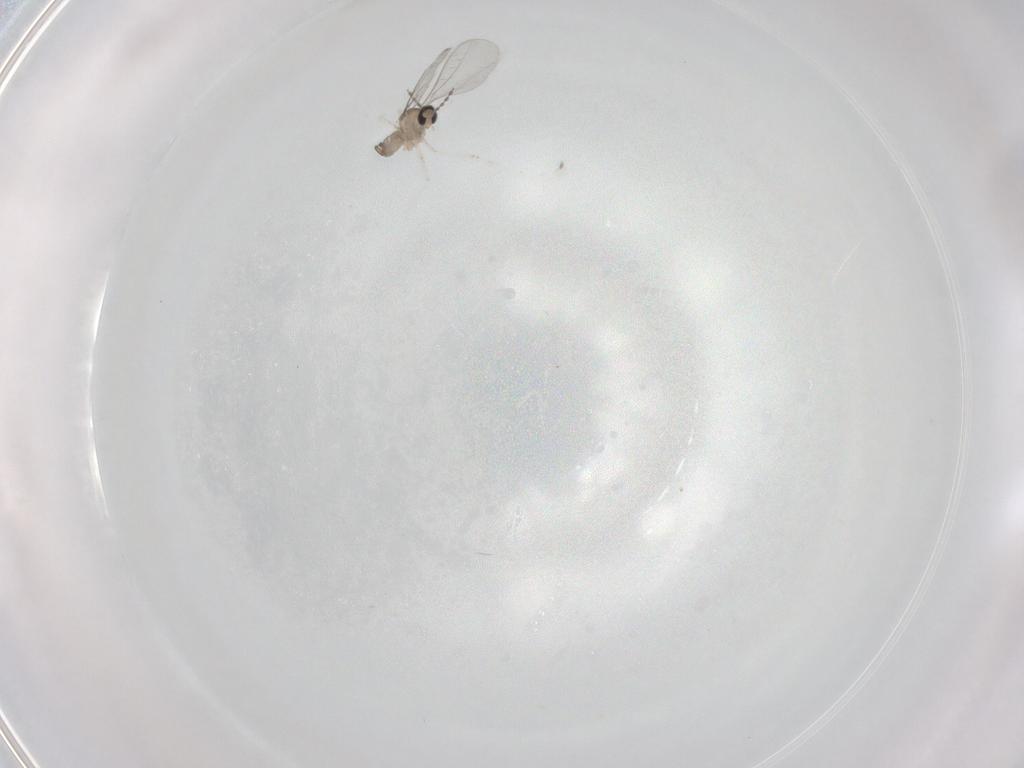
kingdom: Animalia
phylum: Arthropoda
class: Insecta
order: Diptera
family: Cecidomyiidae
